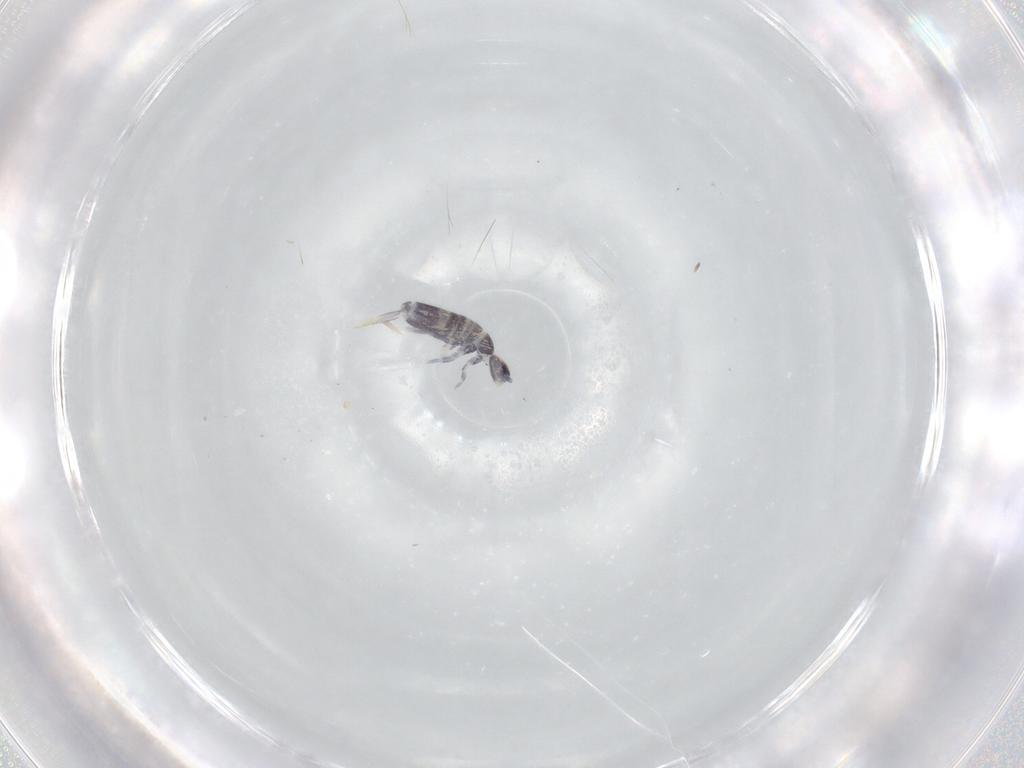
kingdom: Animalia
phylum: Arthropoda
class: Collembola
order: Entomobryomorpha
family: Entomobryidae
